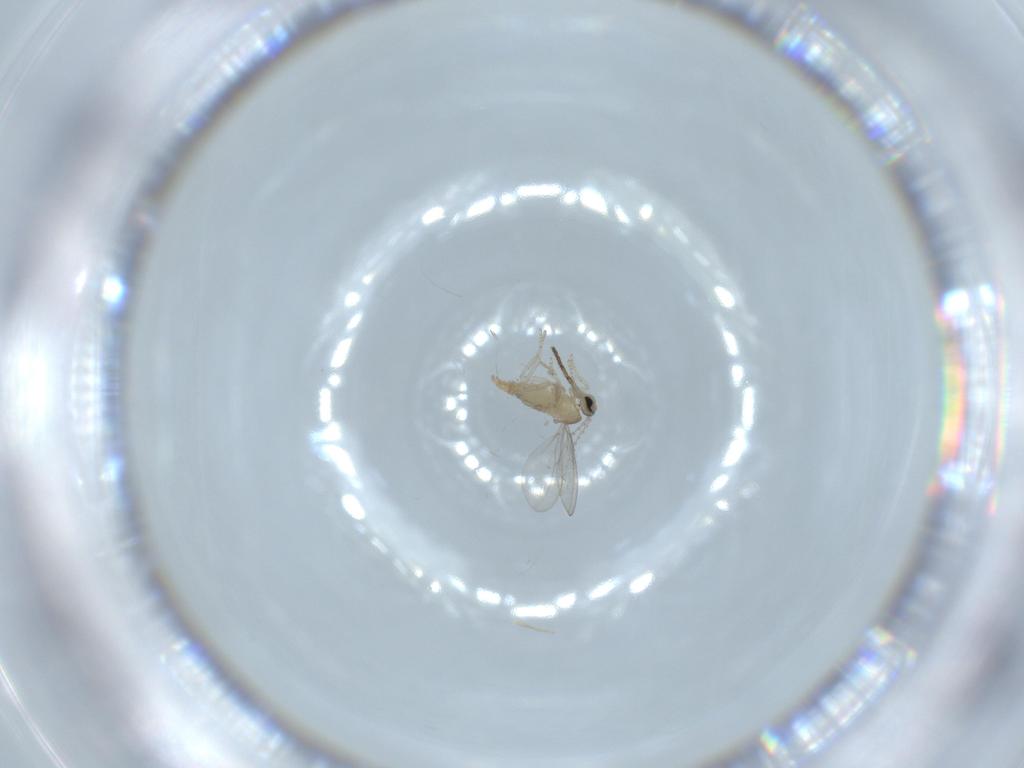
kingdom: Animalia
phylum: Arthropoda
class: Insecta
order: Diptera
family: Cecidomyiidae
